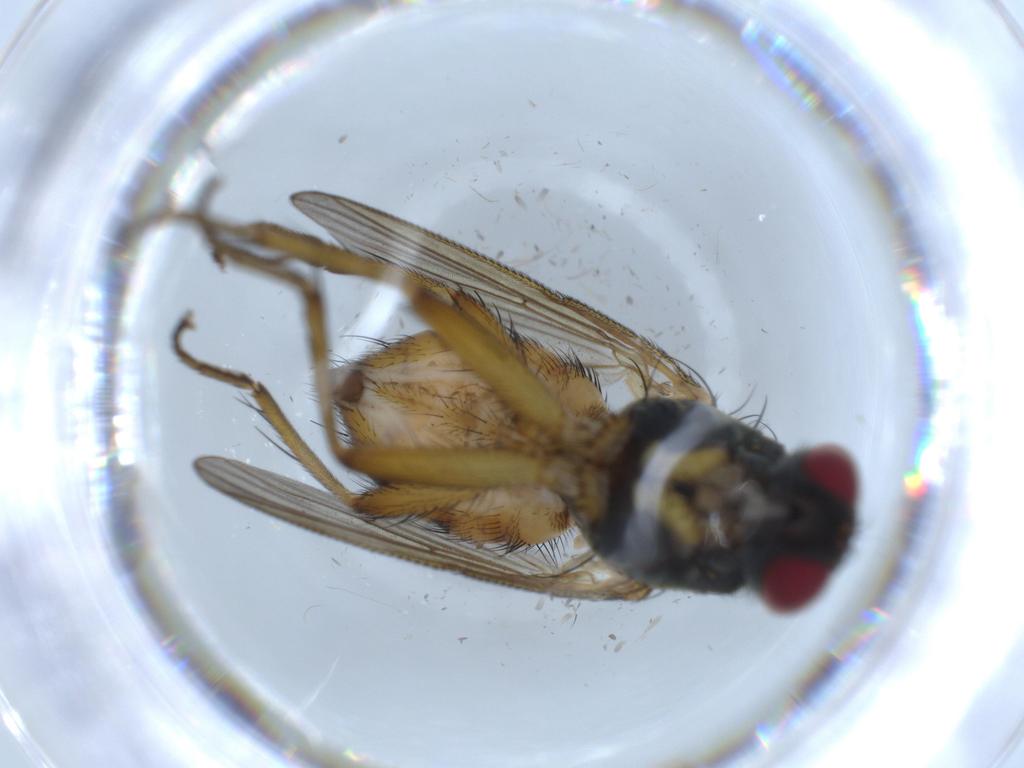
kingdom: Animalia
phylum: Arthropoda
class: Insecta
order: Diptera
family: Muscidae
